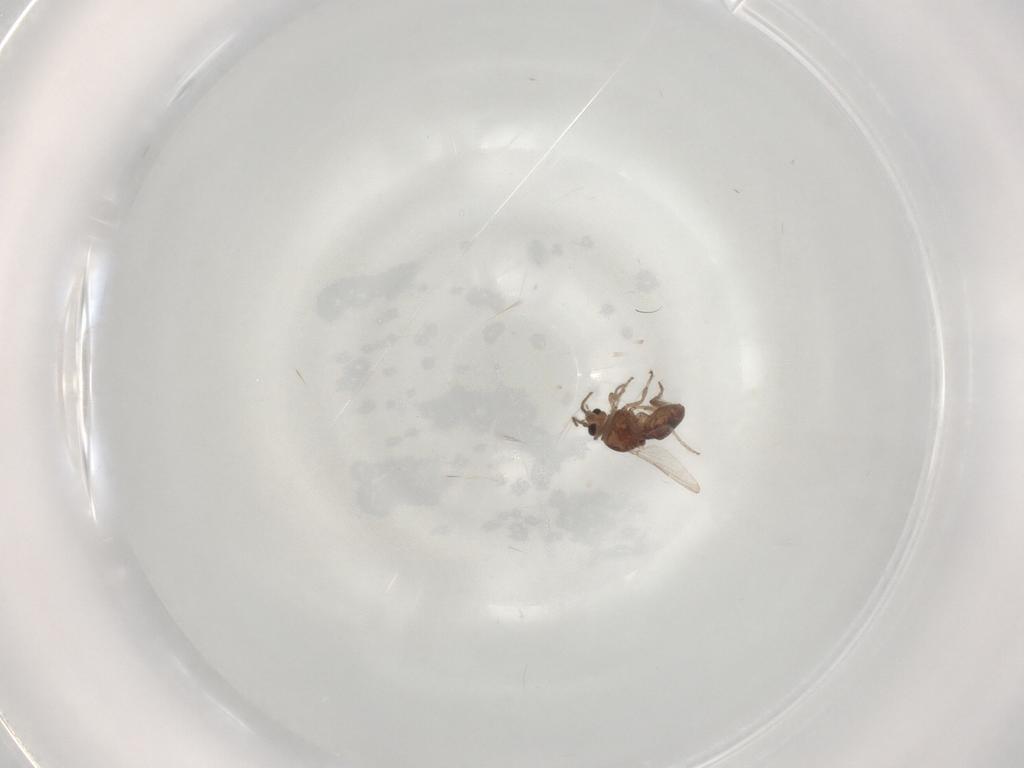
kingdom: Animalia
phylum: Arthropoda
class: Insecta
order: Diptera
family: Ceratopogonidae
